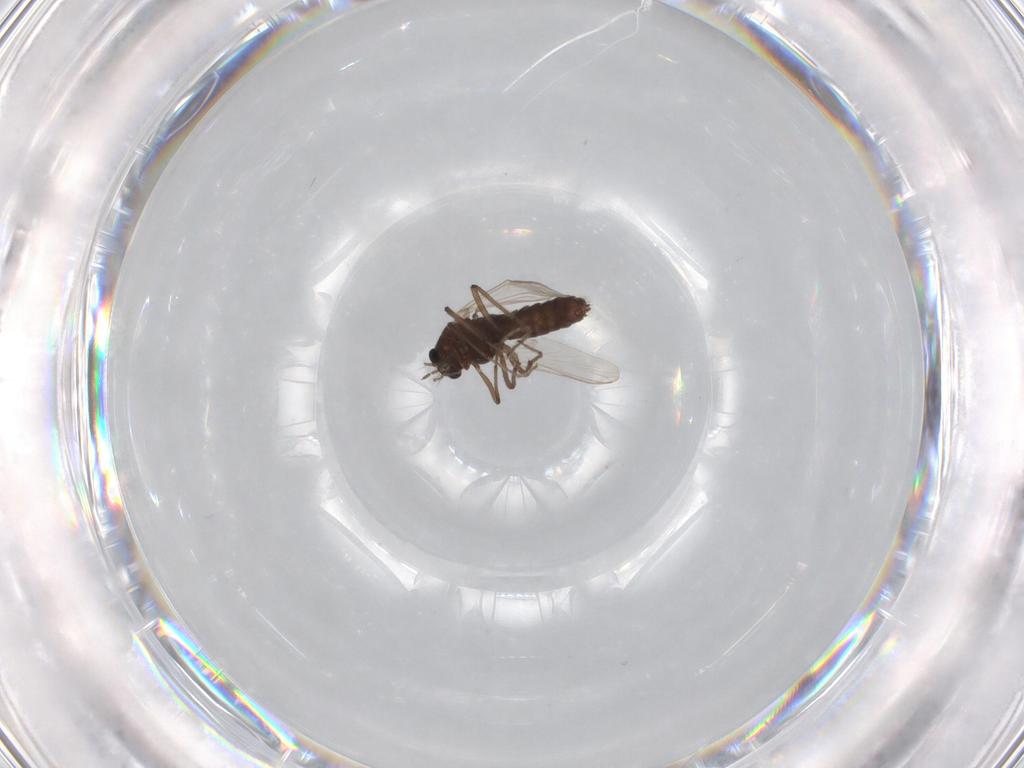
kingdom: Animalia
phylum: Arthropoda
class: Insecta
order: Diptera
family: Chironomidae
